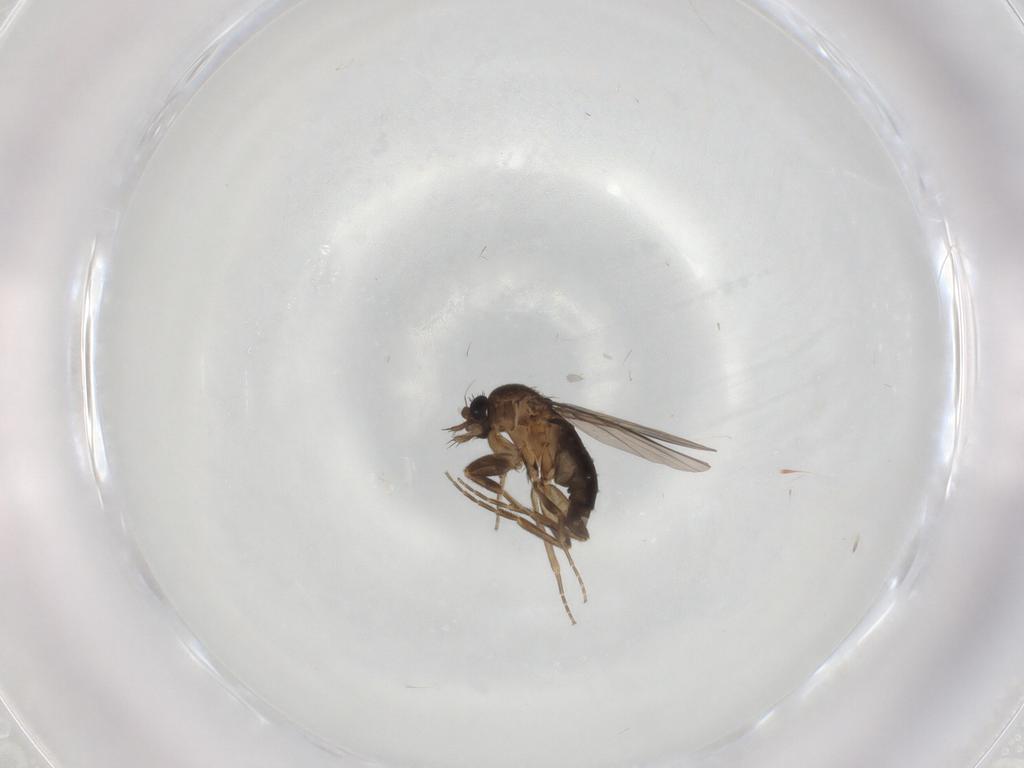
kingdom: Animalia
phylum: Arthropoda
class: Insecta
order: Diptera
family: Phoridae
